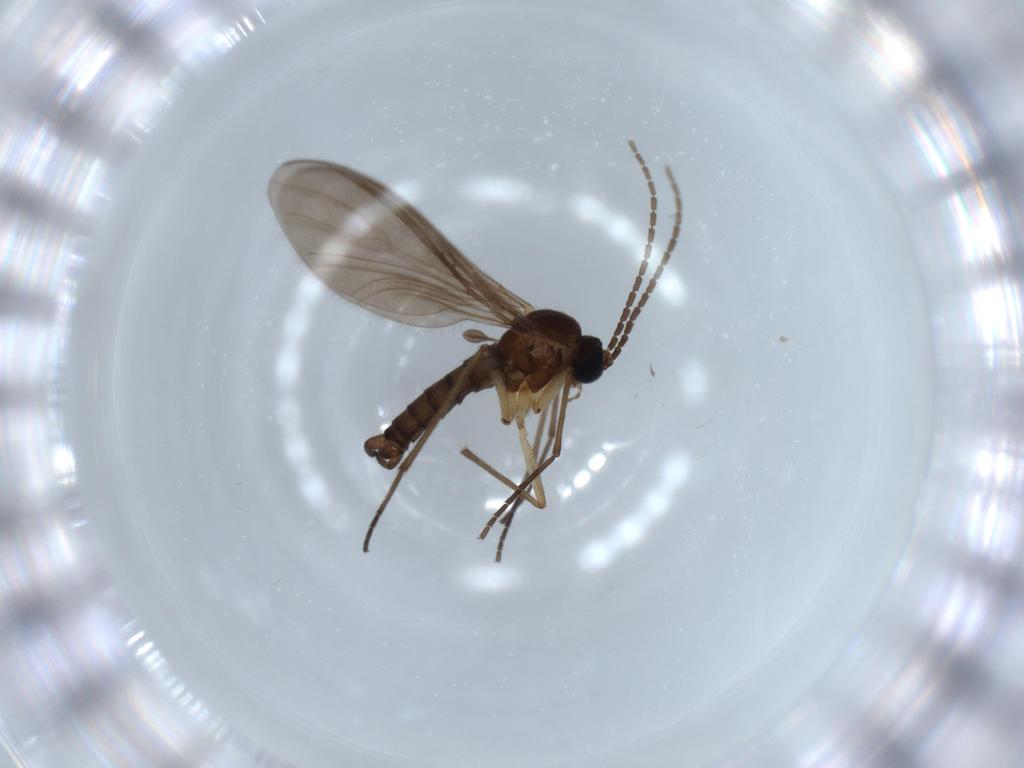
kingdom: Animalia
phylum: Arthropoda
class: Insecta
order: Diptera
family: Sciaridae
